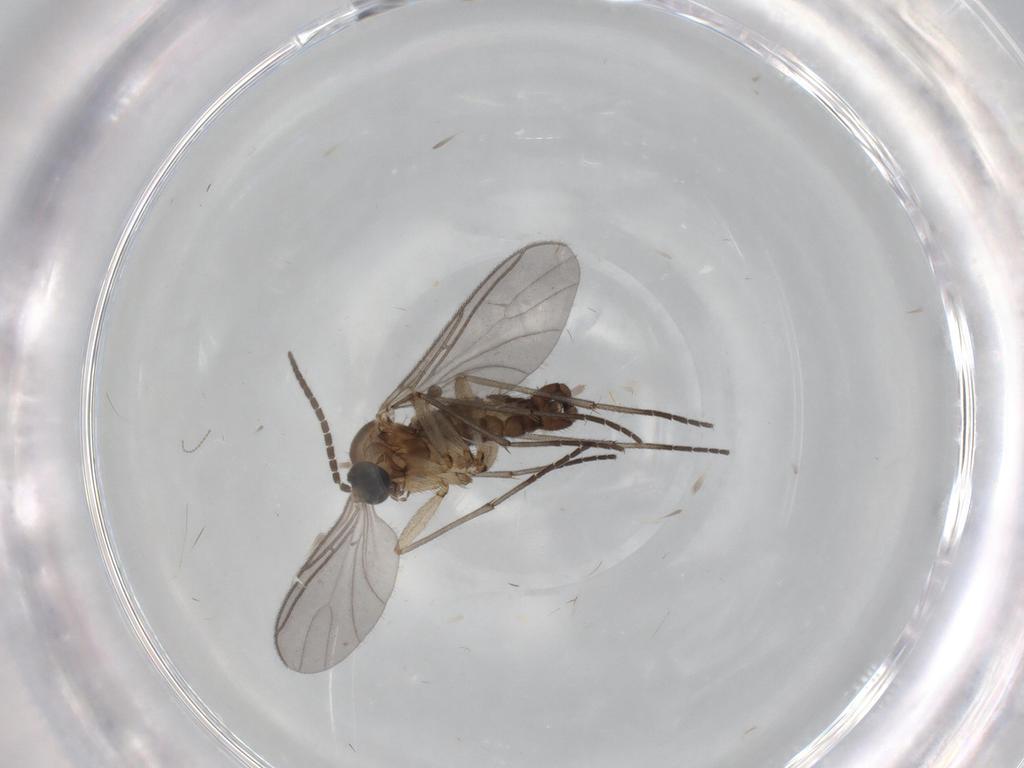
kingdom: Animalia
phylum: Arthropoda
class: Insecta
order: Diptera
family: Sciaridae
